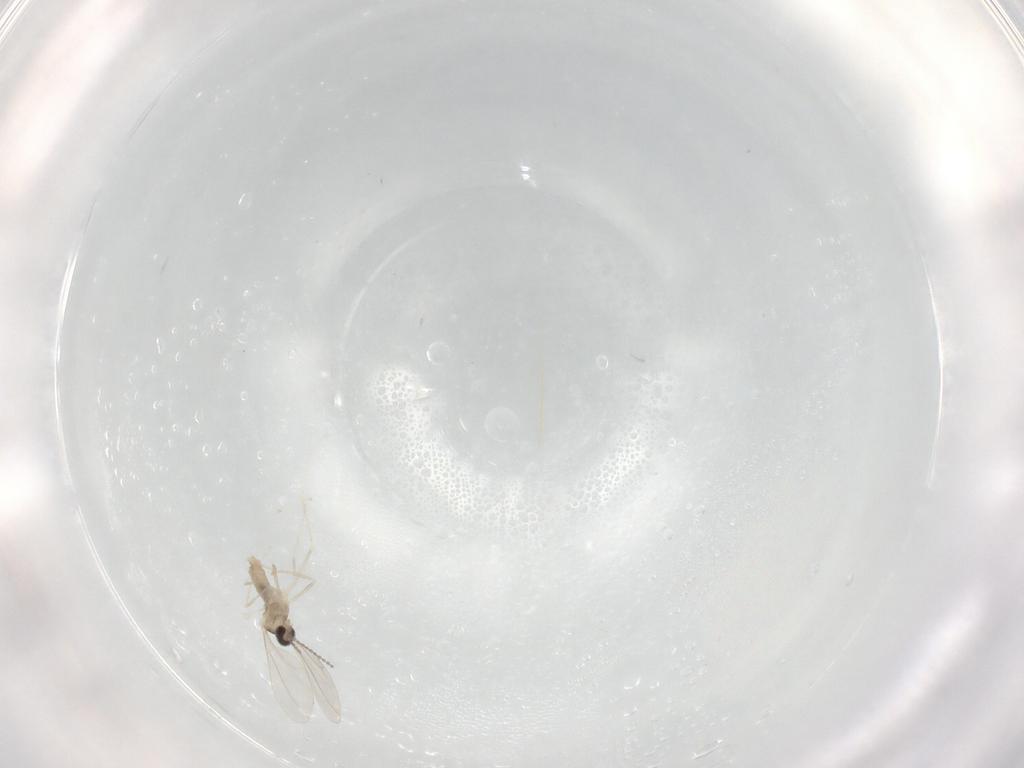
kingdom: Animalia
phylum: Arthropoda
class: Insecta
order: Diptera
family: Cecidomyiidae
